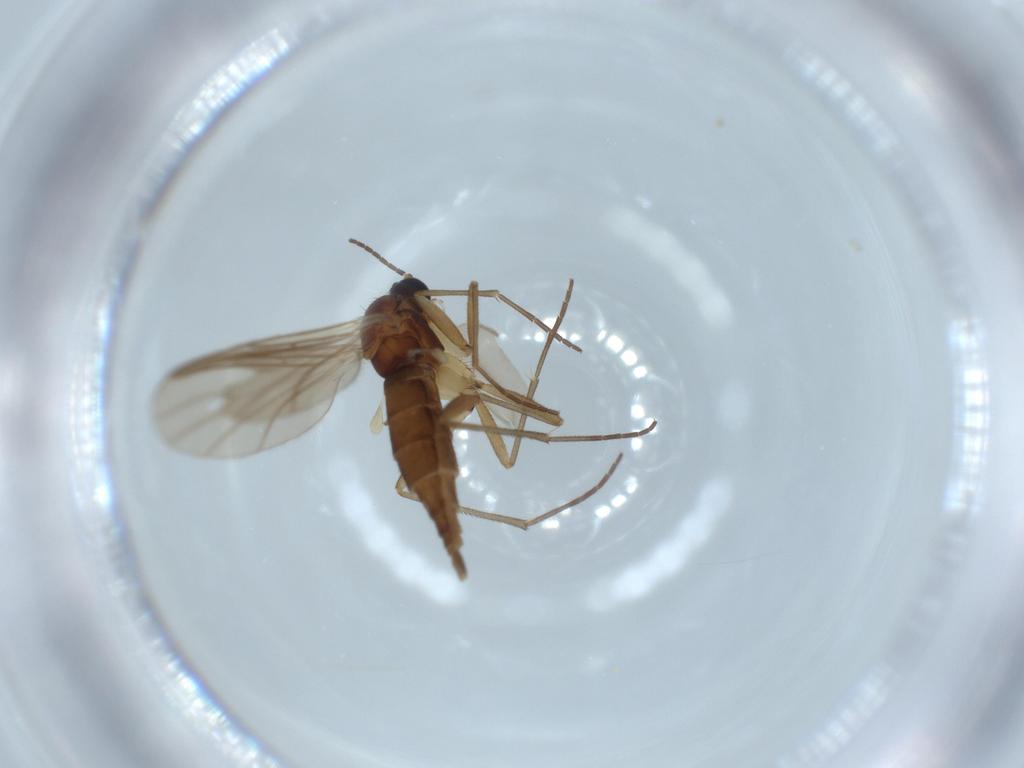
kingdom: Animalia
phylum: Arthropoda
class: Insecta
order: Diptera
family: Sciaridae
